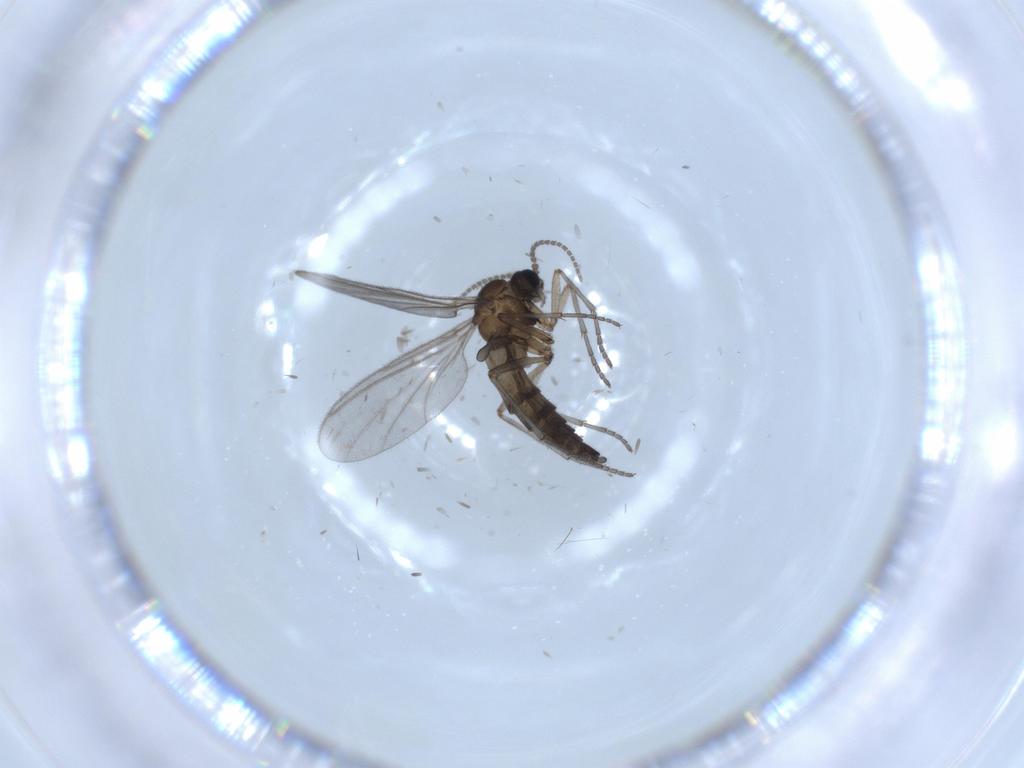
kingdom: Animalia
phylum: Arthropoda
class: Insecta
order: Diptera
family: Sciaridae
